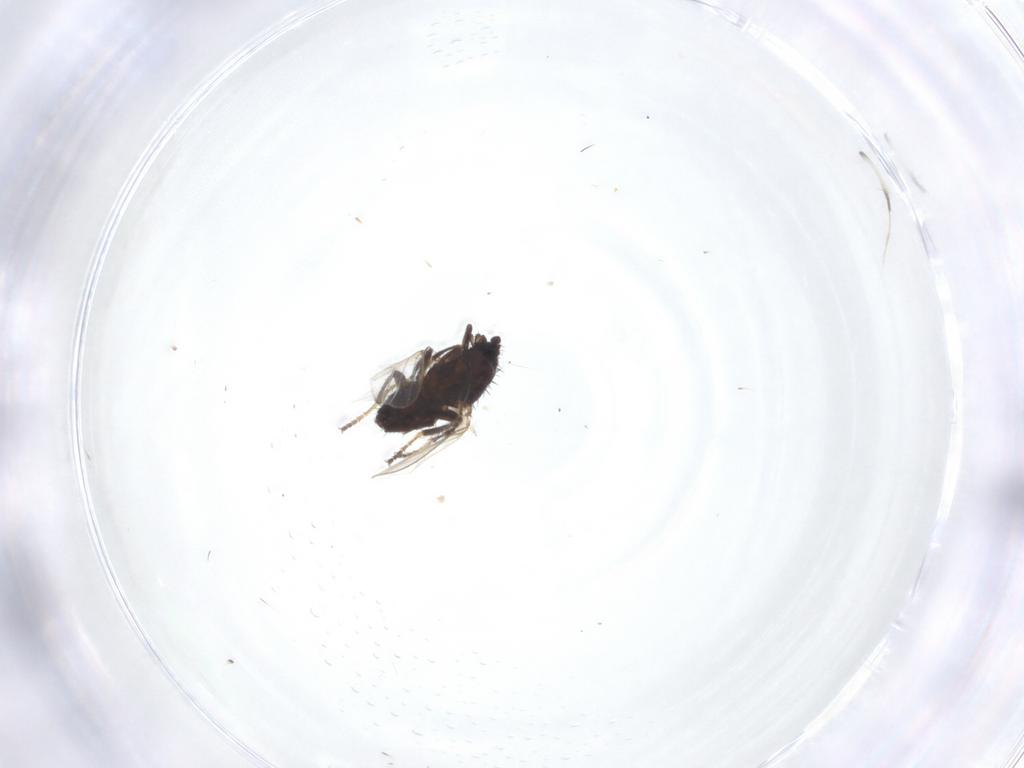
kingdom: Animalia
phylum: Arthropoda
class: Insecta
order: Diptera
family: Milichiidae
